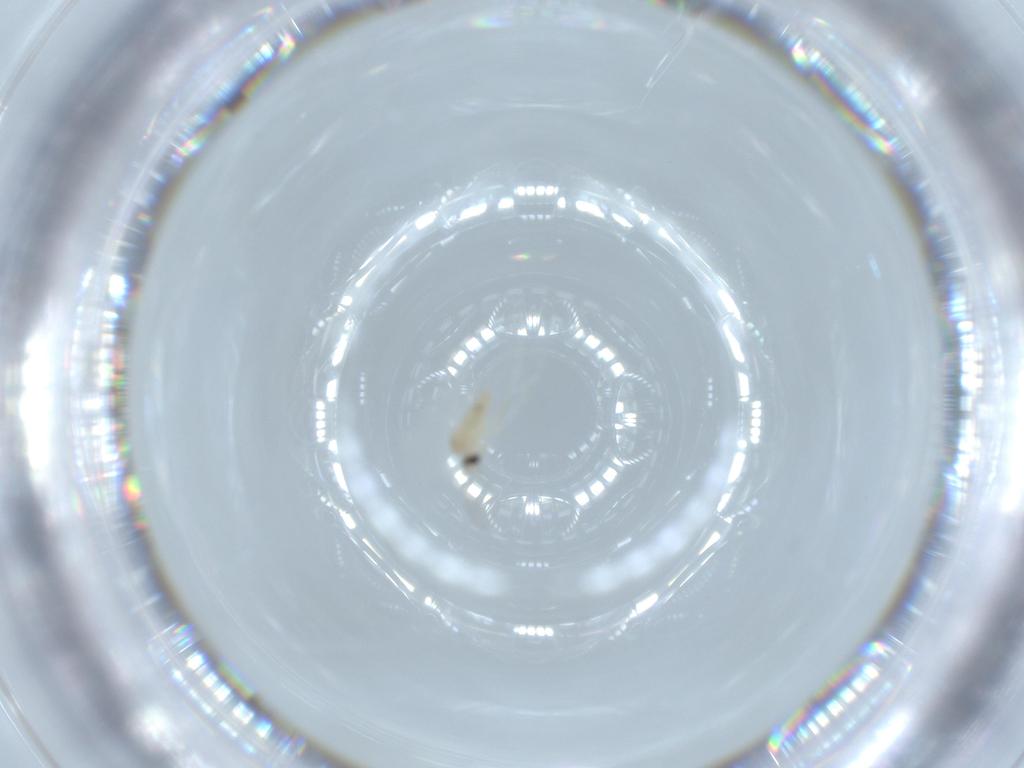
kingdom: Animalia
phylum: Arthropoda
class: Insecta
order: Diptera
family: Cecidomyiidae
